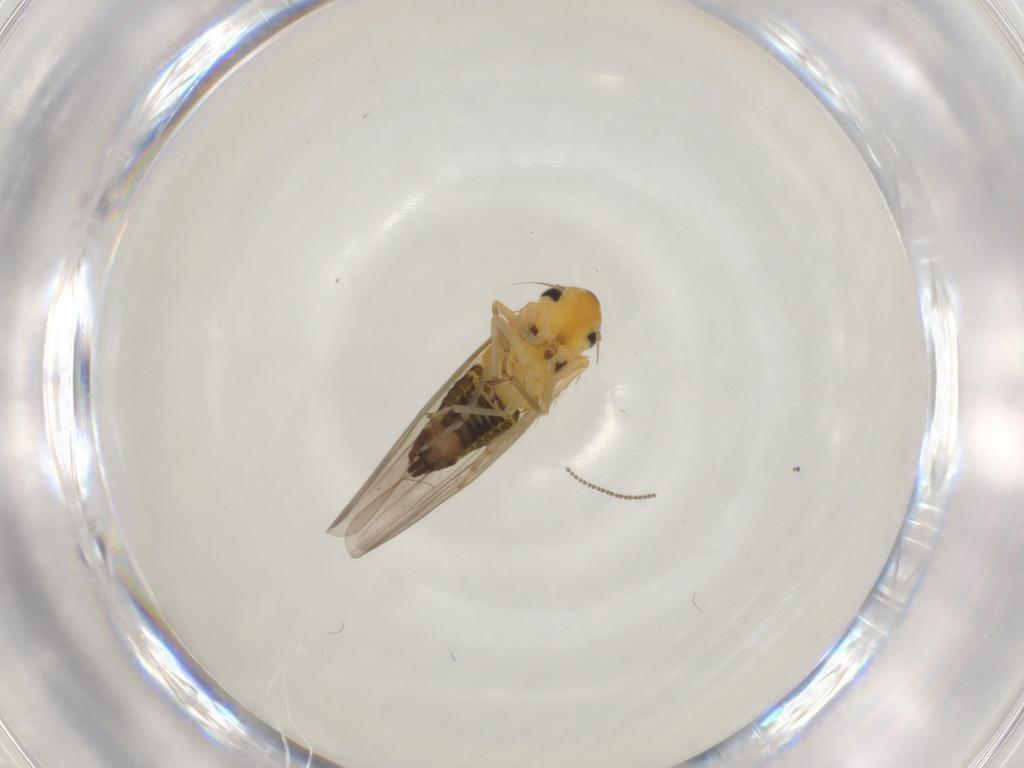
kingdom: Animalia
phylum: Arthropoda
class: Insecta
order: Hemiptera
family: Cicadellidae
